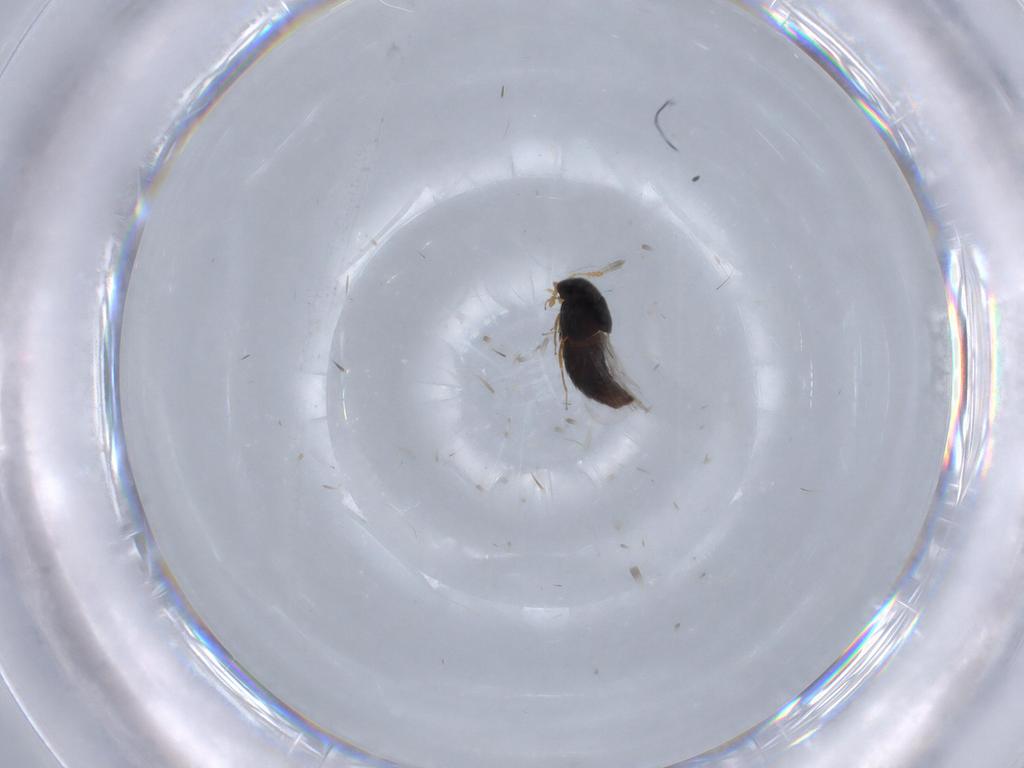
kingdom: Animalia
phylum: Arthropoda
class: Insecta
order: Coleoptera
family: Staphylinidae
